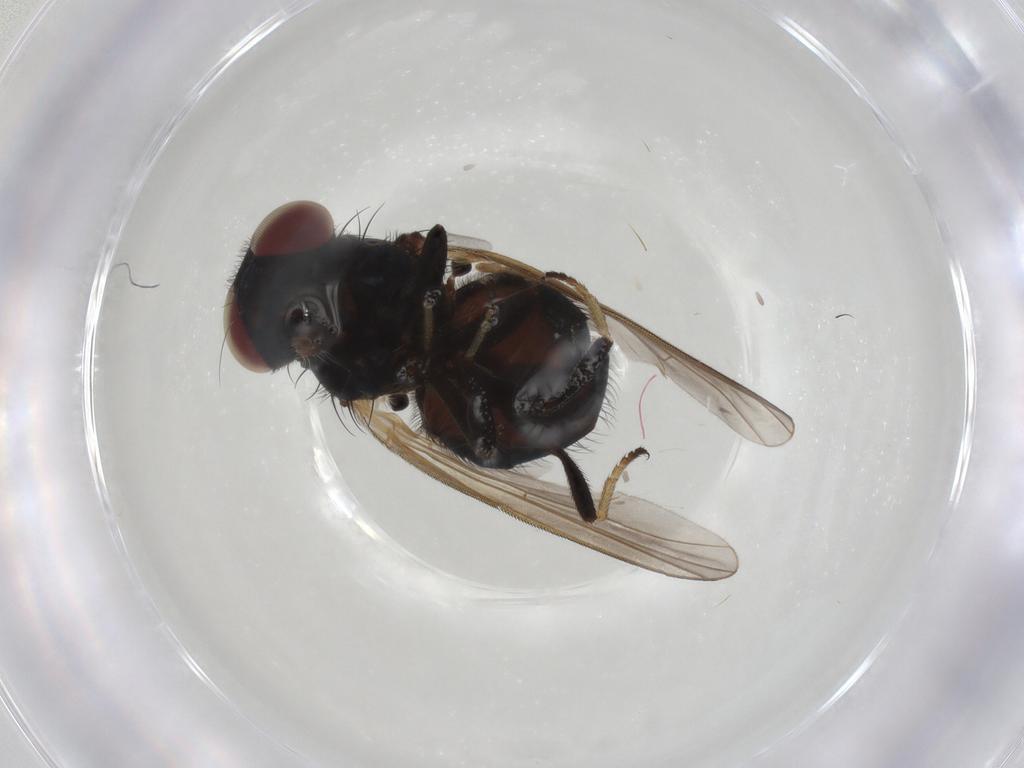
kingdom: Animalia
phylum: Arthropoda
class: Insecta
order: Diptera
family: Lonchaeidae
